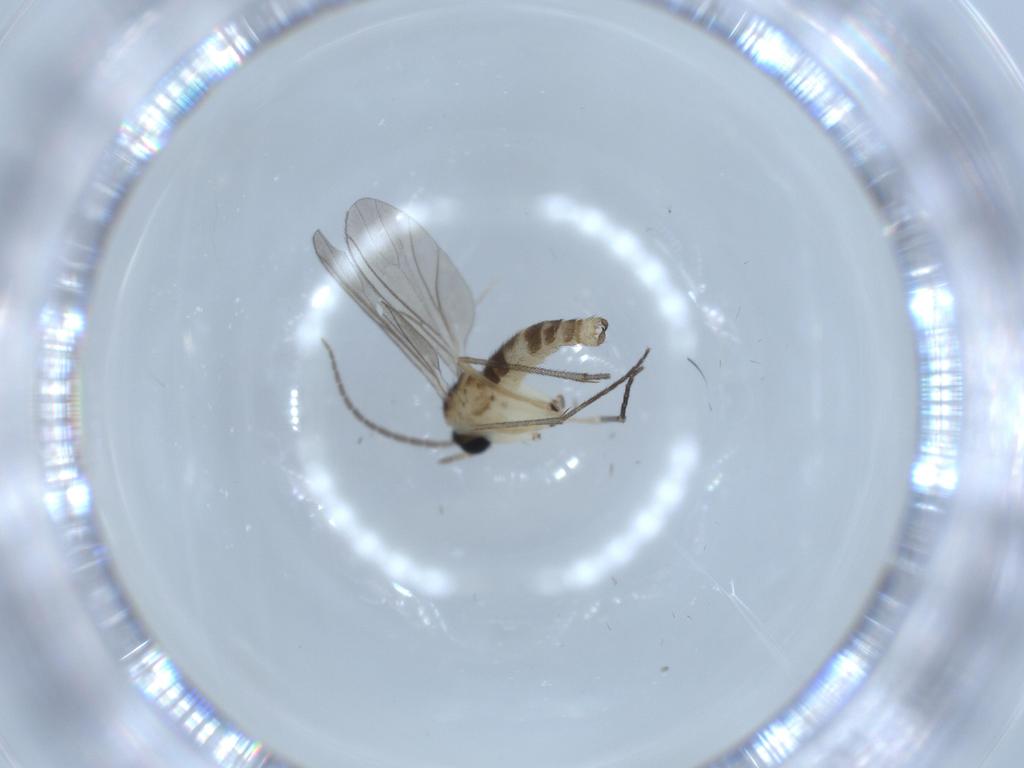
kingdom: Animalia
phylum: Arthropoda
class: Insecta
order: Diptera
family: Sciaridae
